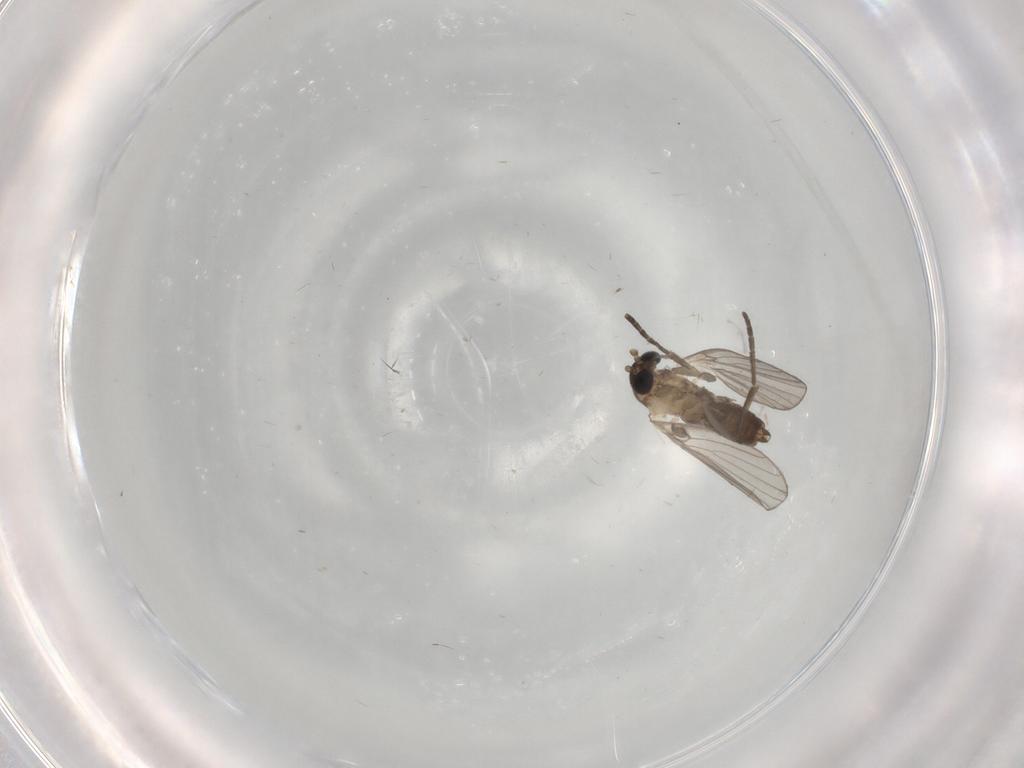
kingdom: Animalia
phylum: Arthropoda
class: Insecta
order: Diptera
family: Psychodidae
